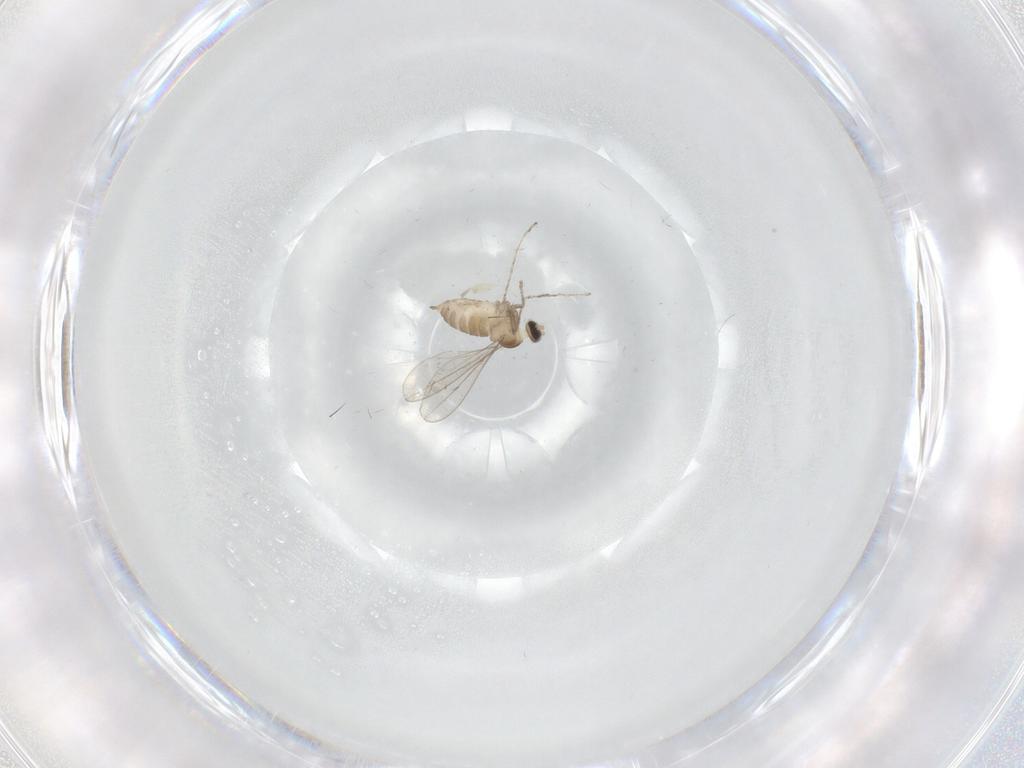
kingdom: Animalia
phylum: Arthropoda
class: Insecta
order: Diptera
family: Cecidomyiidae
